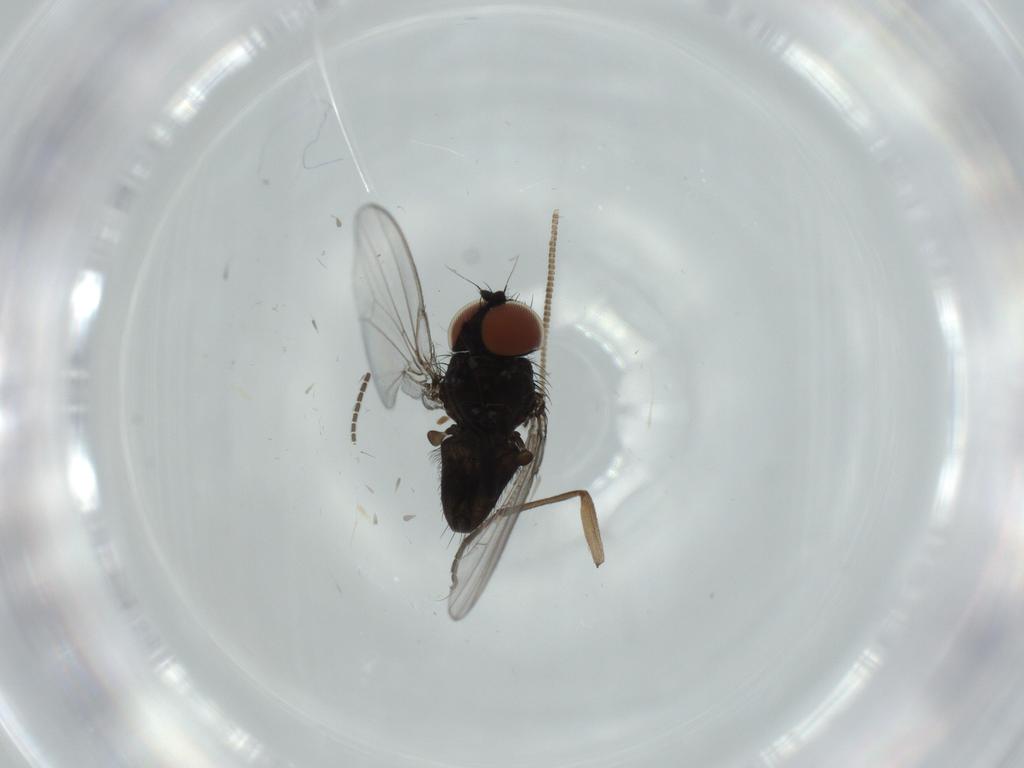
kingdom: Animalia
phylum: Arthropoda
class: Insecta
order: Diptera
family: Milichiidae
